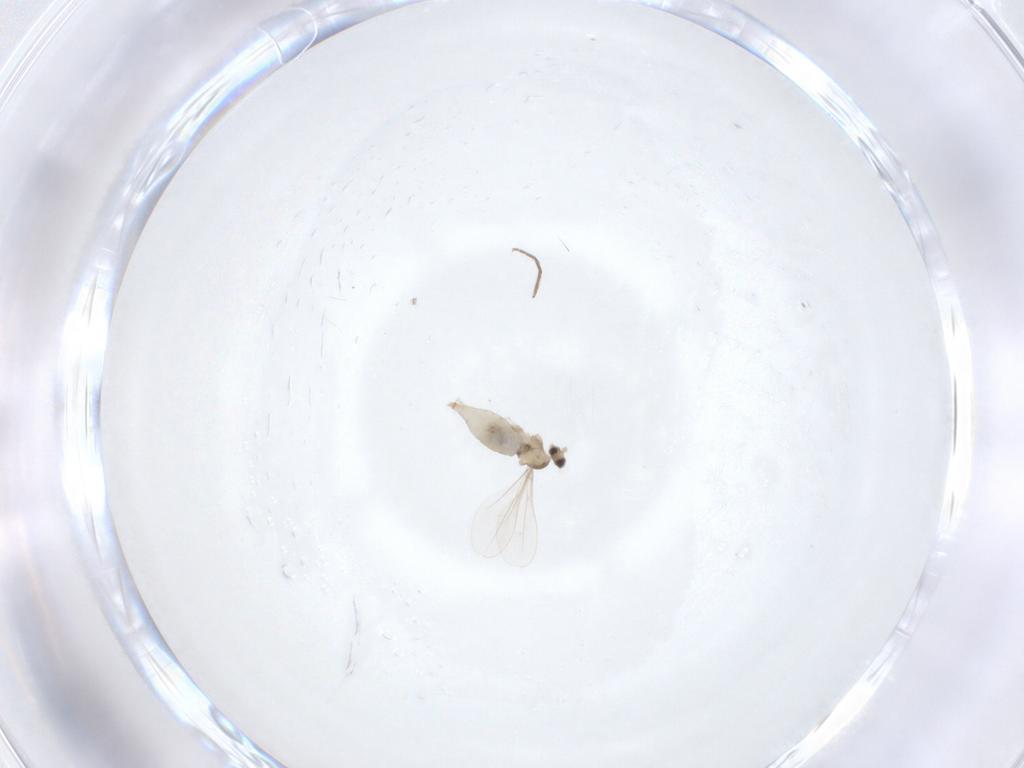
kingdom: Animalia
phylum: Arthropoda
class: Insecta
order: Diptera
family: Cecidomyiidae
